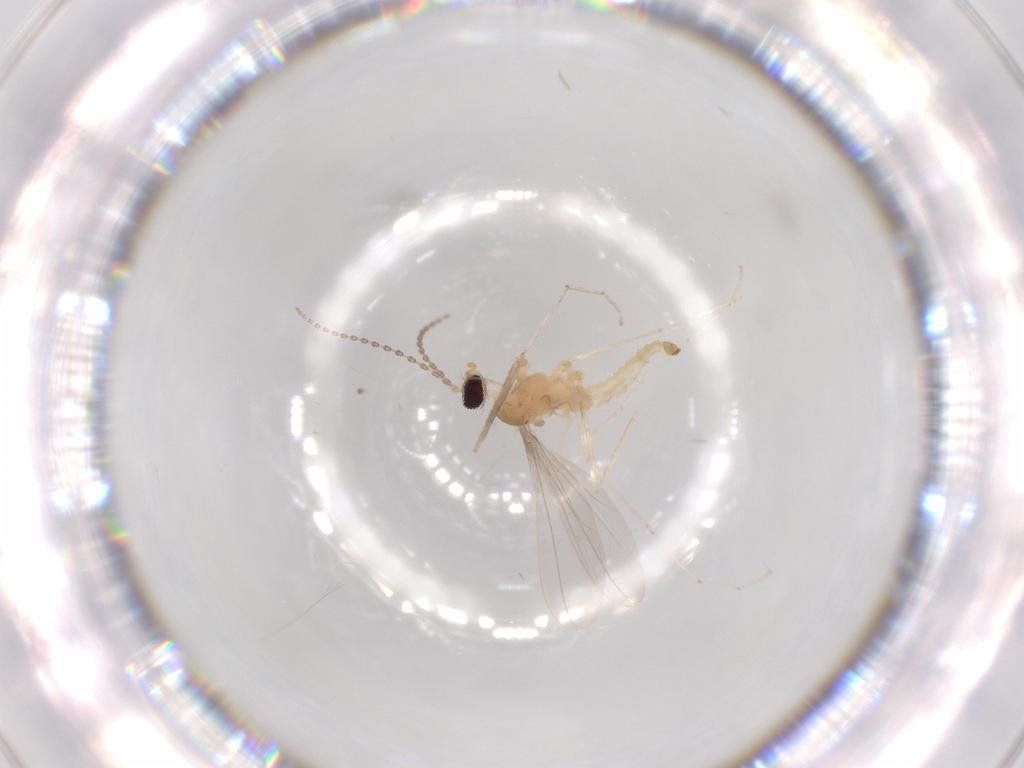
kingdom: Animalia
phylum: Arthropoda
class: Insecta
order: Diptera
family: Cecidomyiidae
